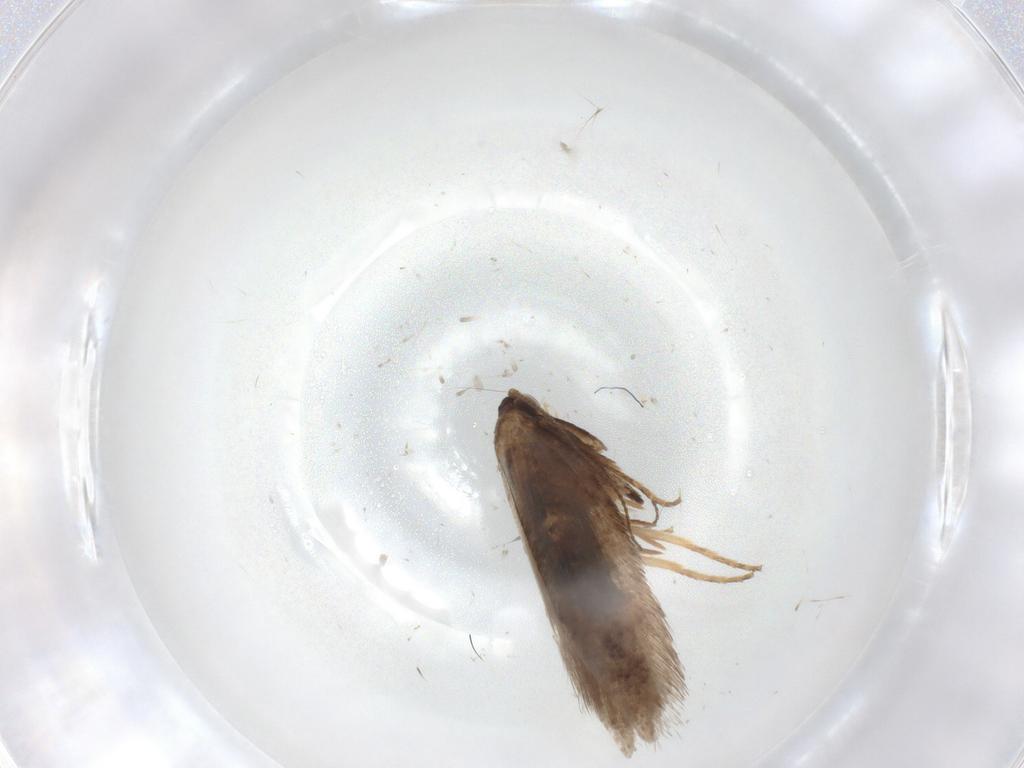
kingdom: Animalia
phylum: Arthropoda
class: Insecta
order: Lepidoptera
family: Nepticulidae
